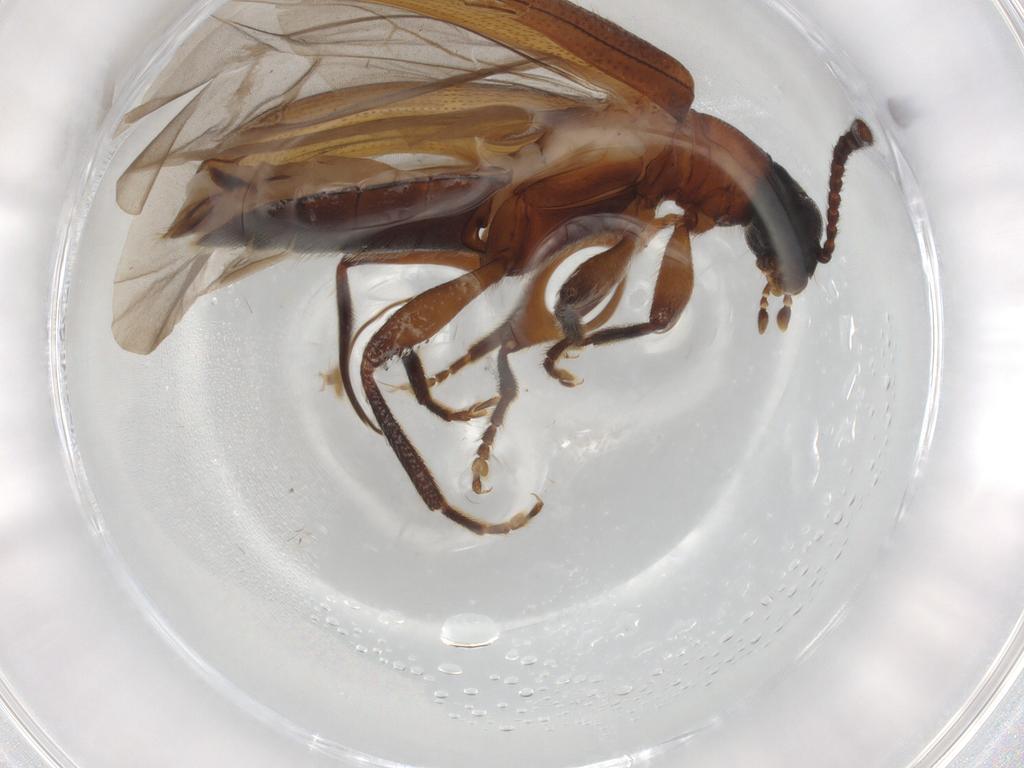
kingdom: Animalia
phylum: Arthropoda
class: Insecta
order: Coleoptera
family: Tenebrionidae
